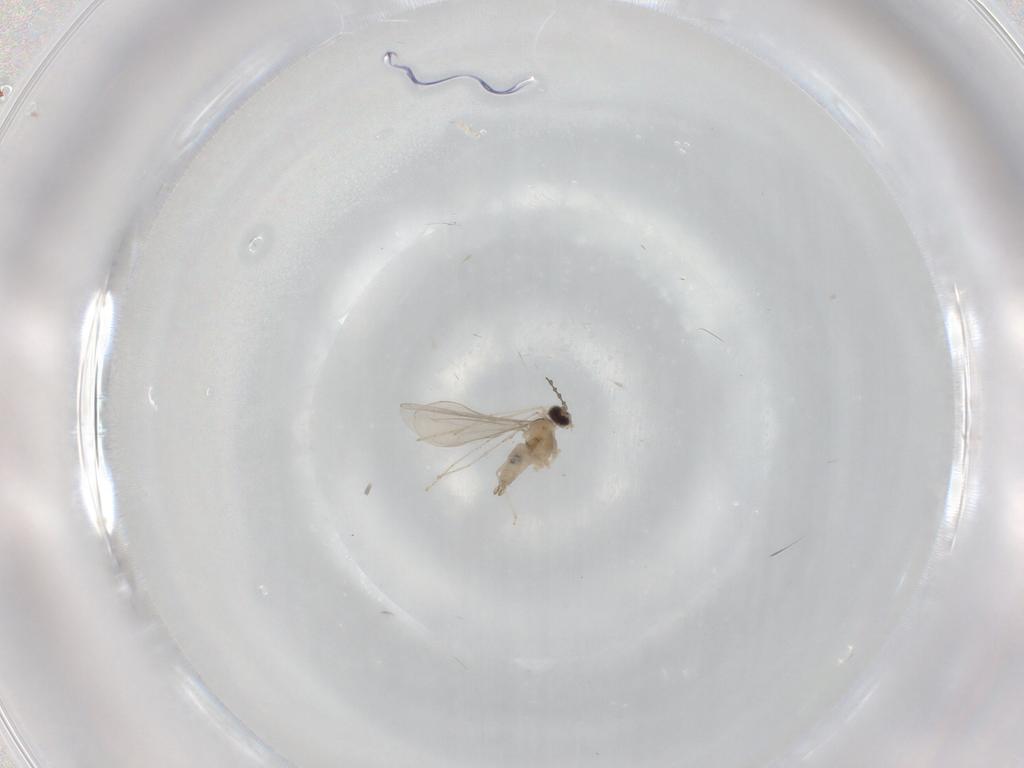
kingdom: Animalia
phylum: Arthropoda
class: Insecta
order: Diptera
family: Cecidomyiidae
